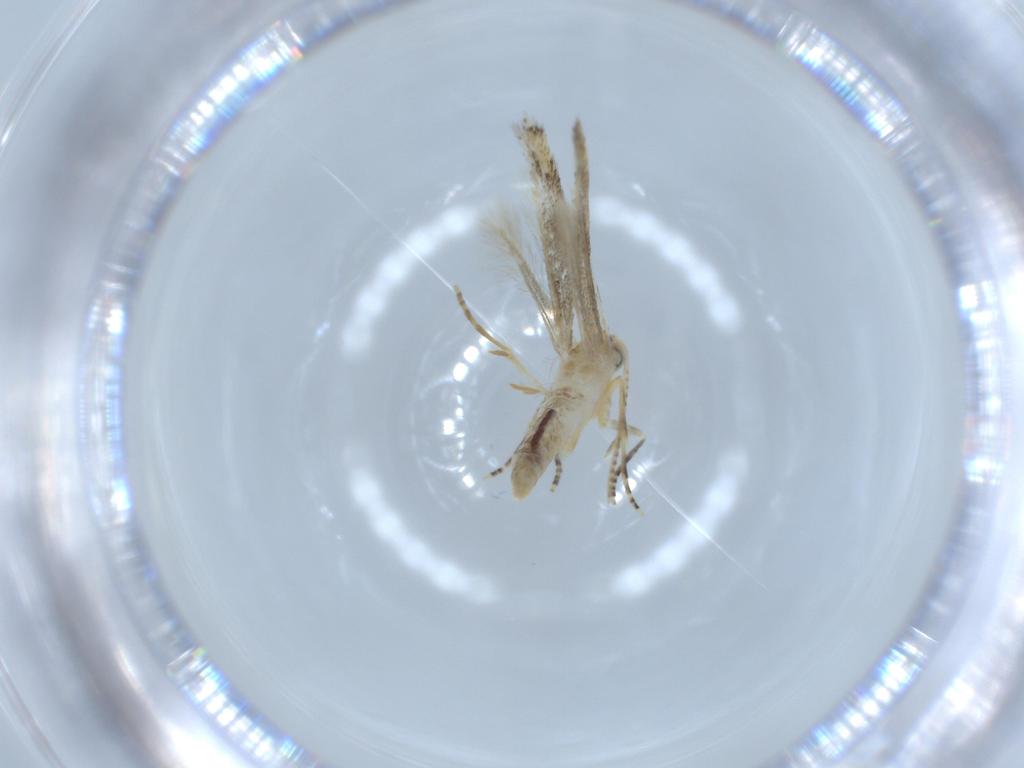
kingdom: Animalia
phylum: Arthropoda
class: Insecta
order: Lepidoptera
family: Bucculatricidae
